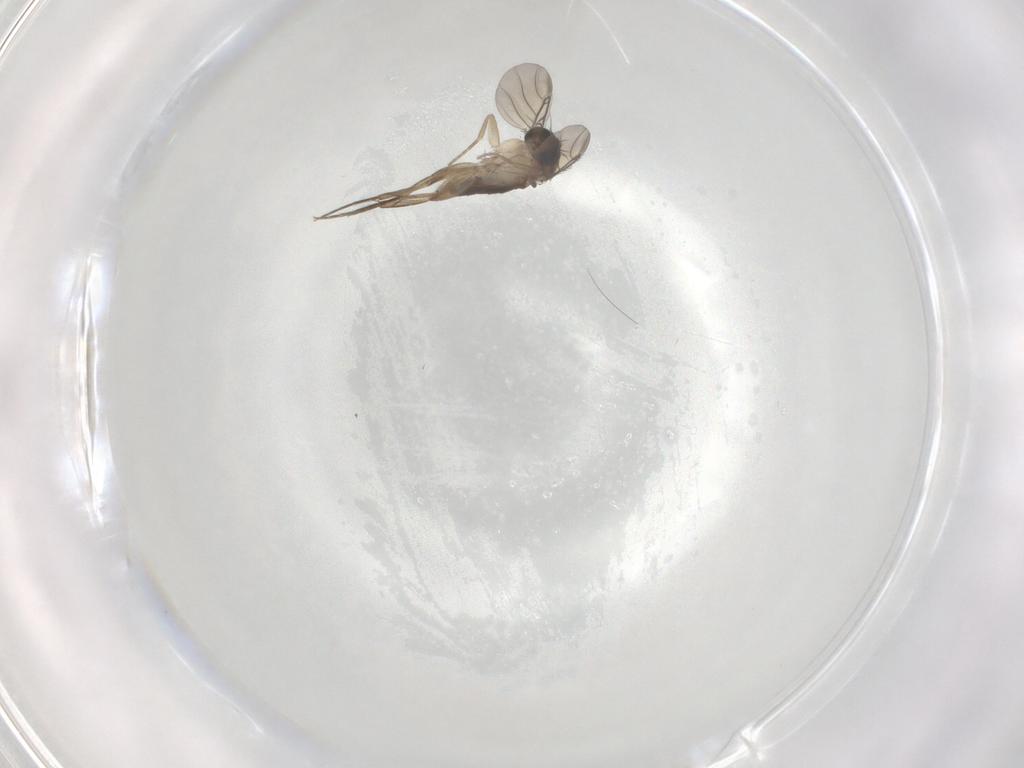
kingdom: Animalia
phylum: Arthropoda
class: Insecta
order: Diptera
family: Phoridae
